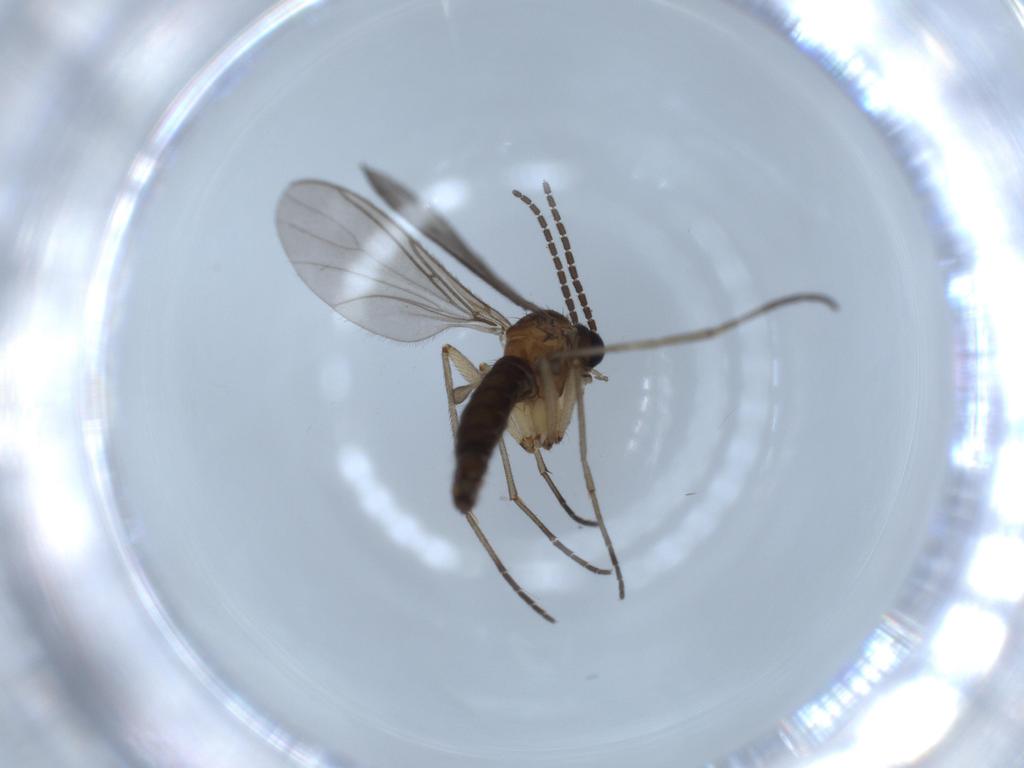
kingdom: Animalia
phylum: Arthropoda
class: Insecta
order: Diptera
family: Sciaridae
